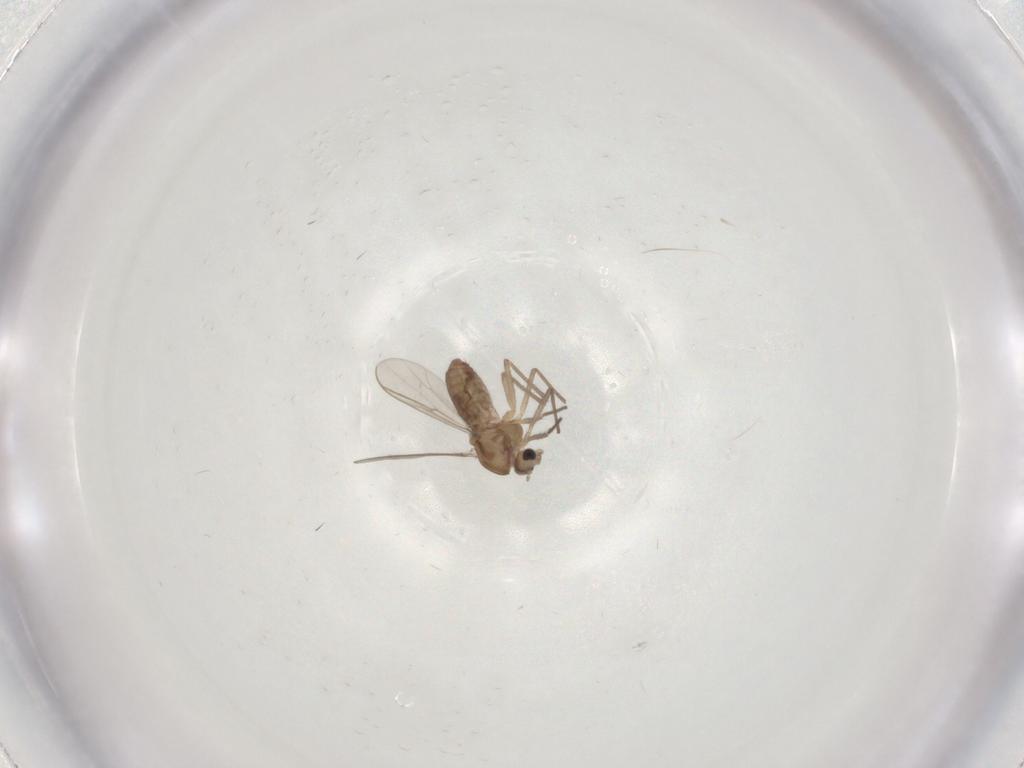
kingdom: Animalia
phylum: Arthropoda
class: Insecta
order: Diptera
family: Chironomidae
